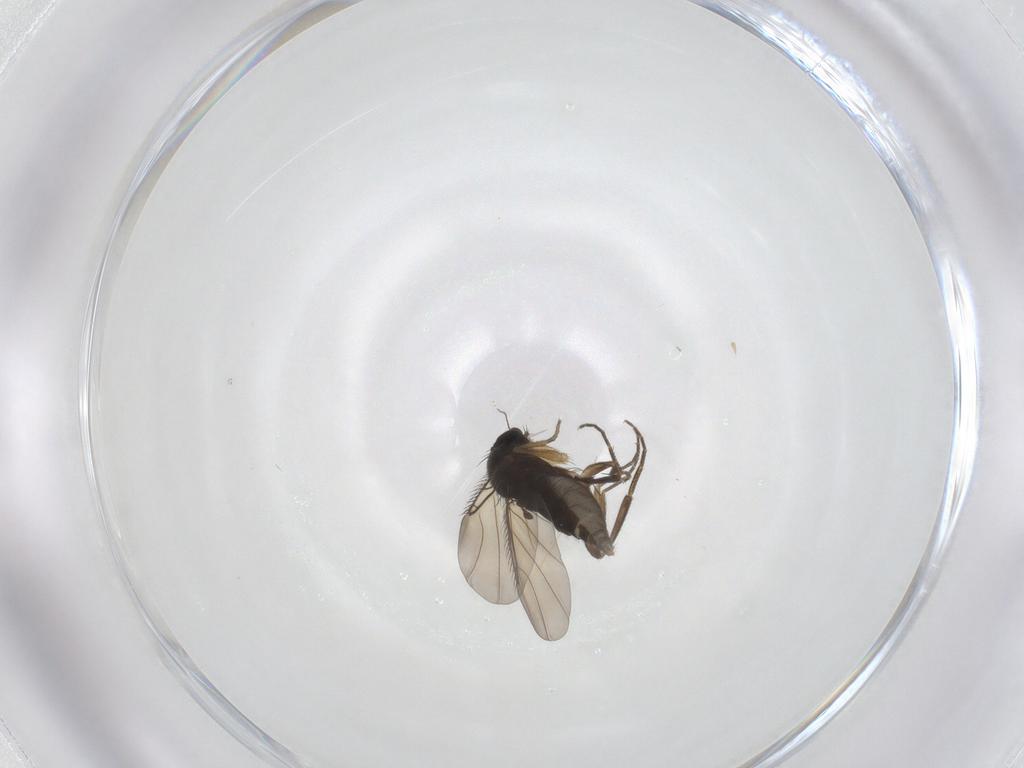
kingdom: Animalia
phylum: Arthropoda
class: Insecta
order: Diptera
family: Phoridae
